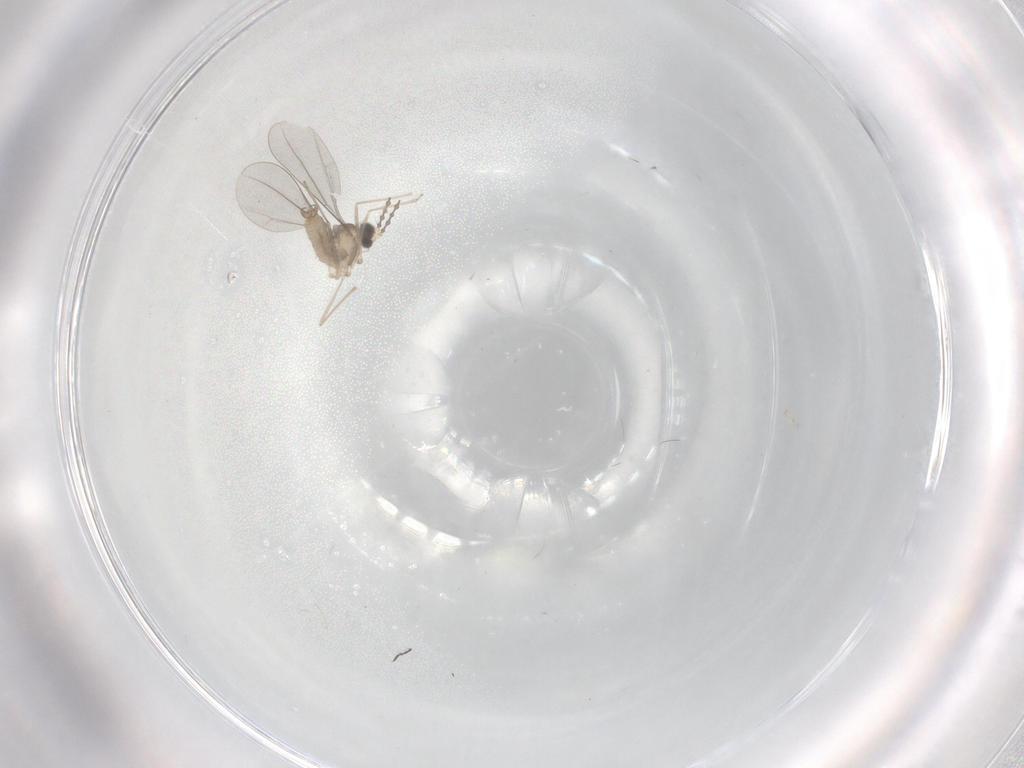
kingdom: Animalia
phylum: Arthropoda
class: Insecta
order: Diptera
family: Chironomidae
